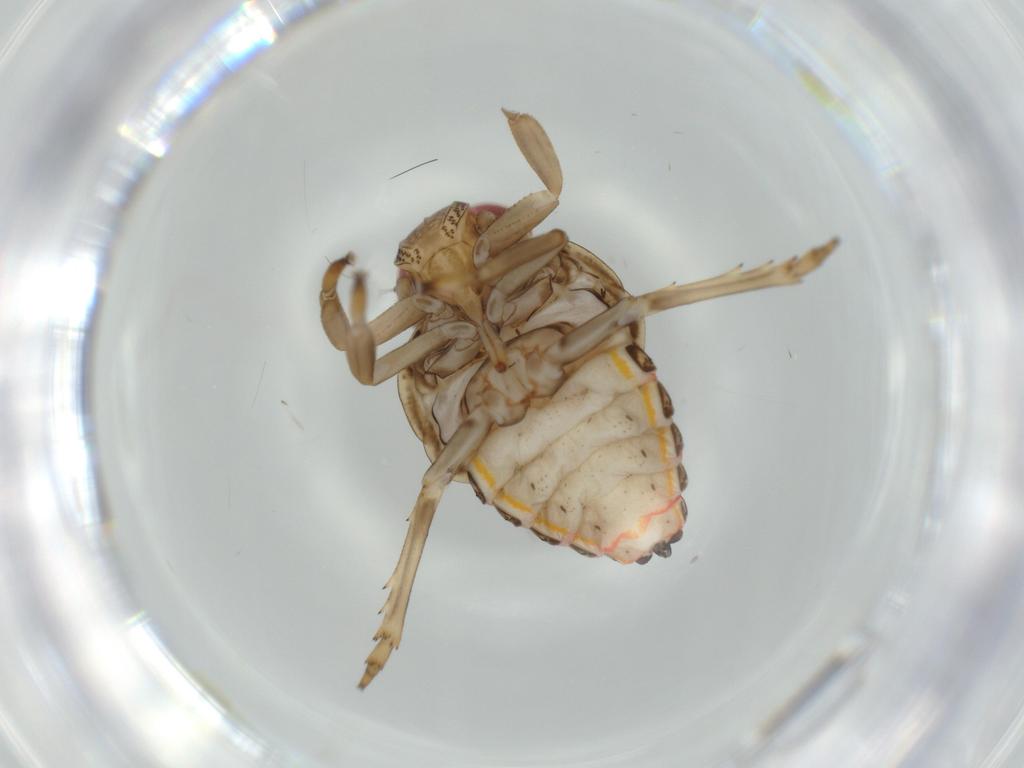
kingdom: Animalia
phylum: Arthropoda
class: Insecta
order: Hemiptera
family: Issidae
